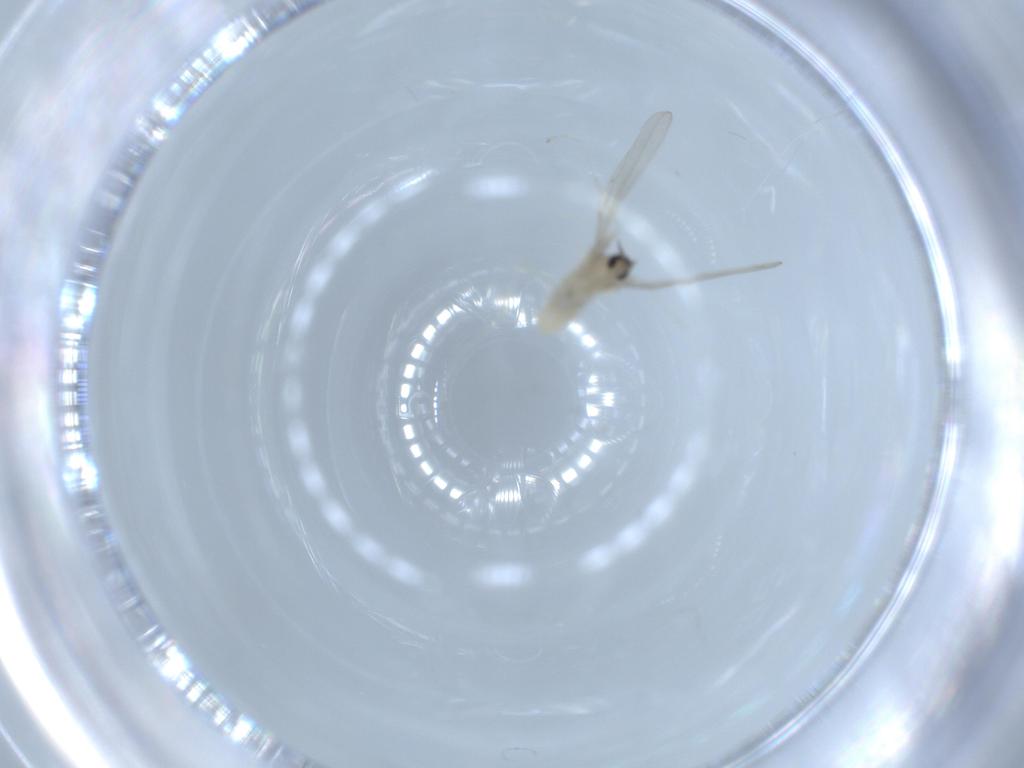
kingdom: Animalia
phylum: Arthropoda
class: Insecta
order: Diptera
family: Cecidomyiidae
